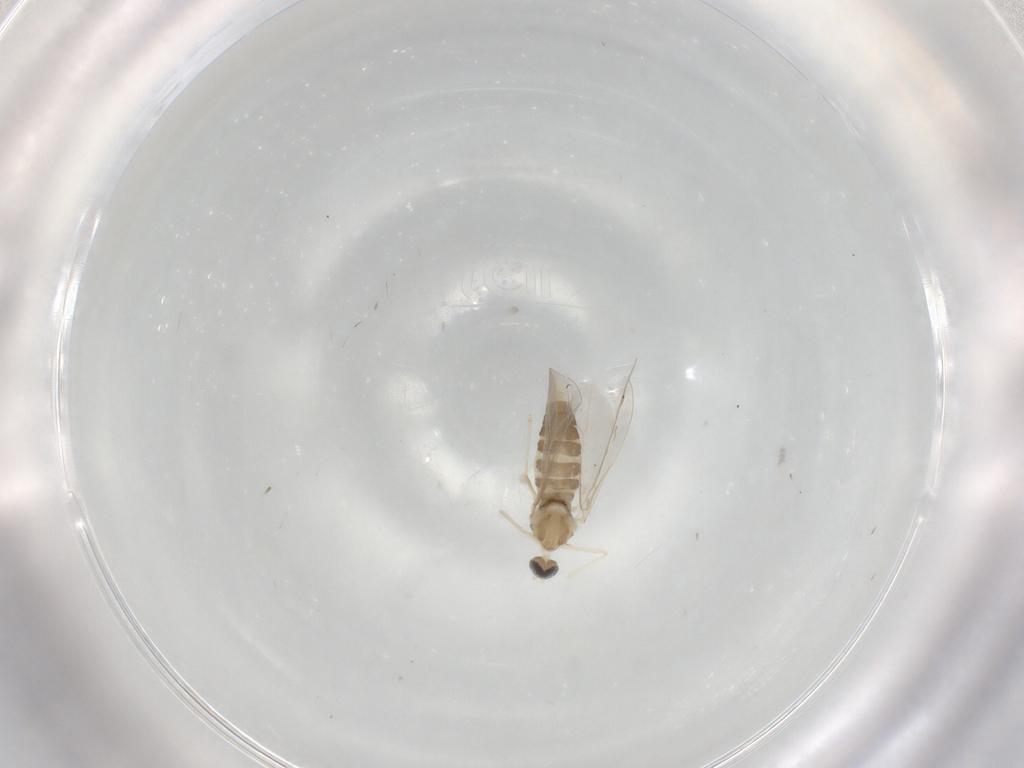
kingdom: Animalia
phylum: Arthropoda
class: Insecta
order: Diptera
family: Cecidomyiidae
